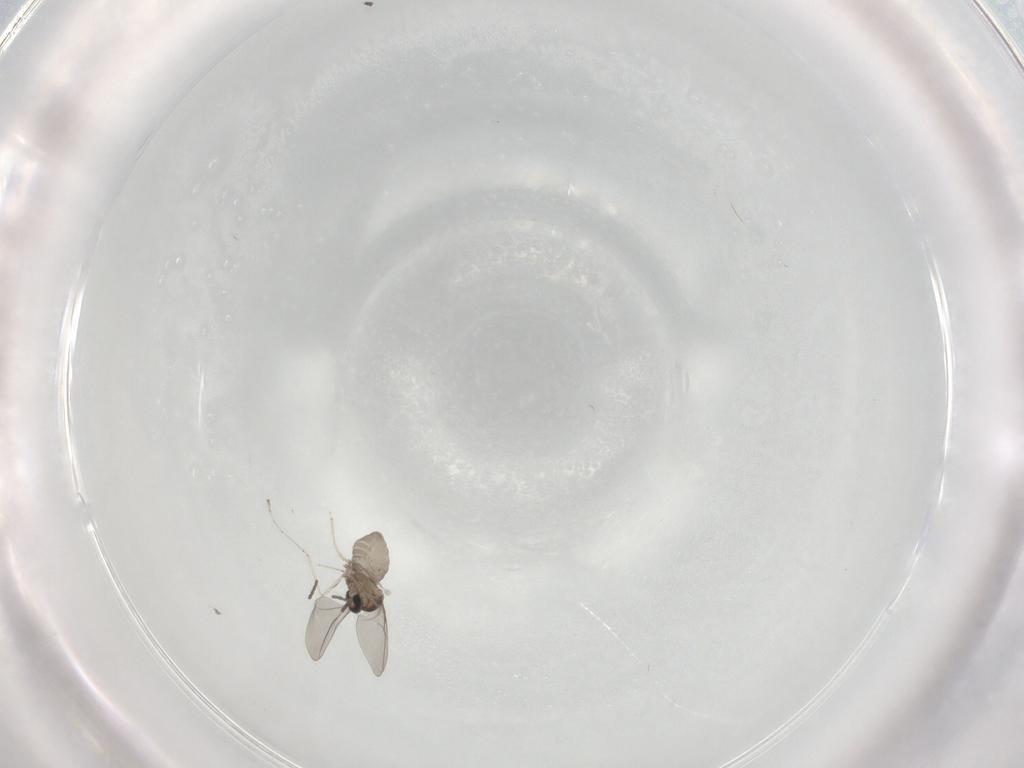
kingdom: Animalia
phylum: Arthropoda
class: Insecta
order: Diptera
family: Cecidomyiidae
